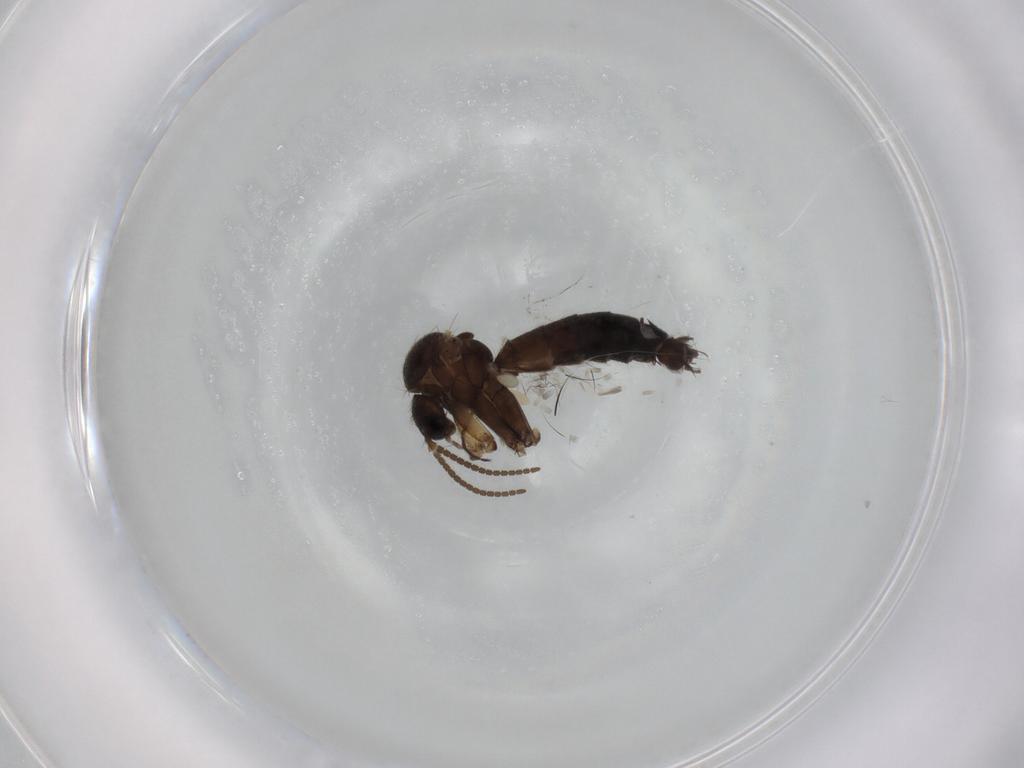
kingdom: Animalia
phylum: Arthropoda
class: Insecta
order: Diptera
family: Mycetophilidae
